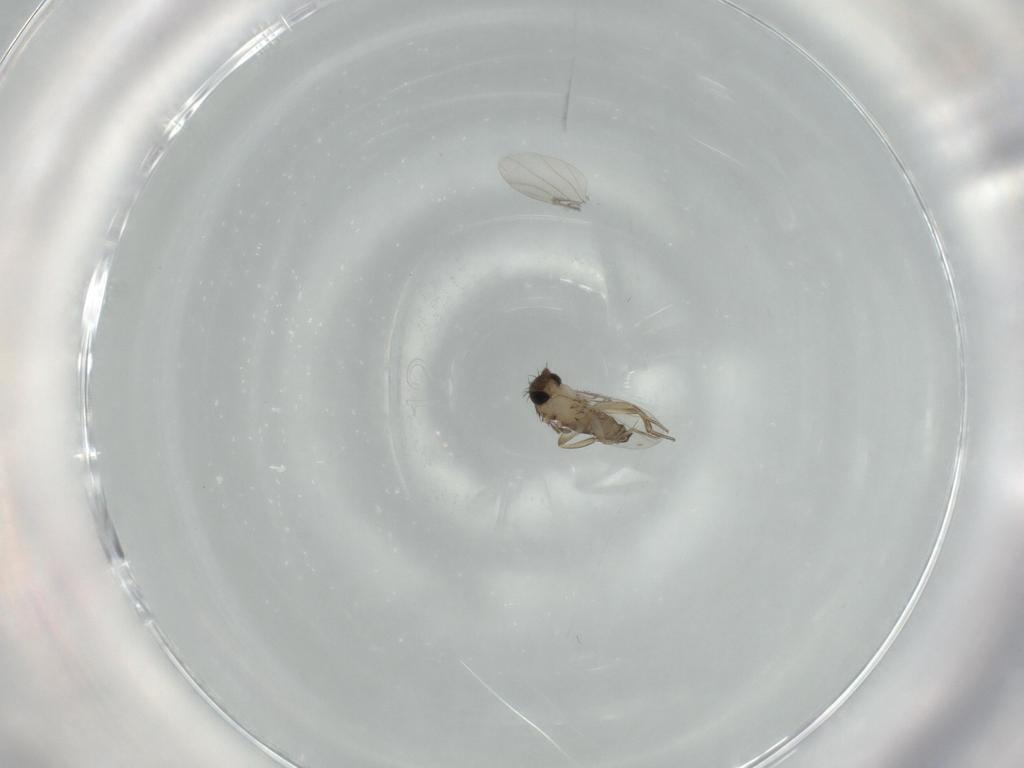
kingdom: Animalia
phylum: Arthropoda
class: Insecta
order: Diptera
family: Phoridae
